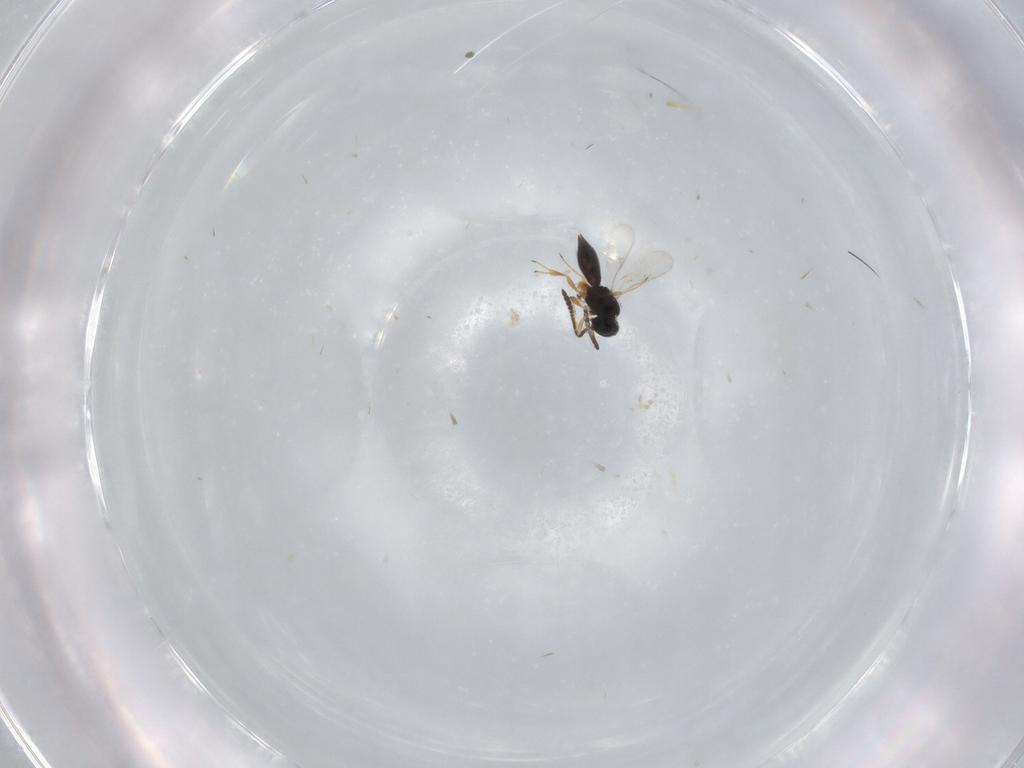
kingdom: Animalia
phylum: Arthropoda
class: Insecta
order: Hymenoptera
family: Scelionidae
